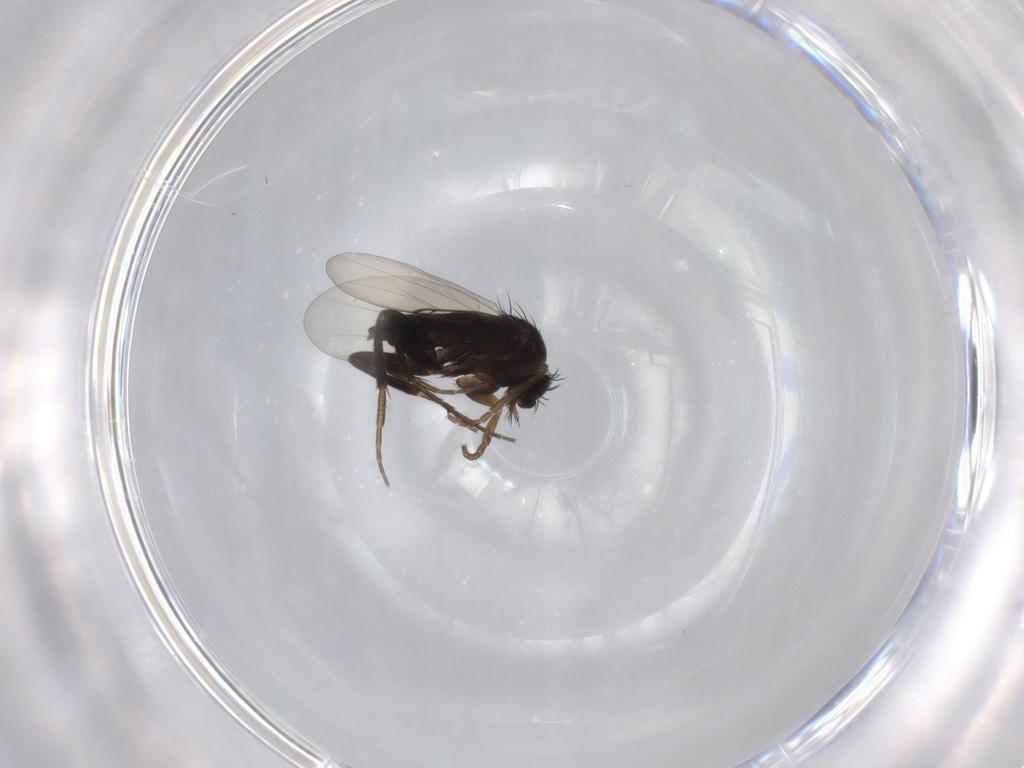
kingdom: Animalia
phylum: Arthropoda
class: Insecta
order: Diptera
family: Phoridae
